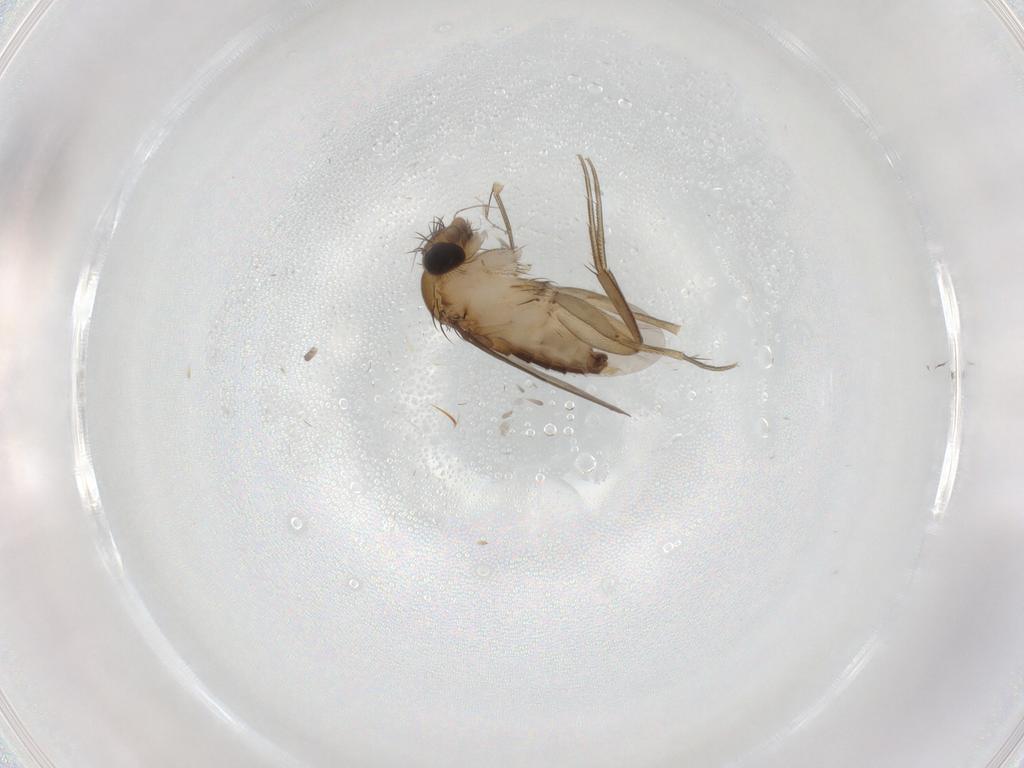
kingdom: Animalia
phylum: Arthropoda
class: Insecta
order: Diptera
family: Phoridae
